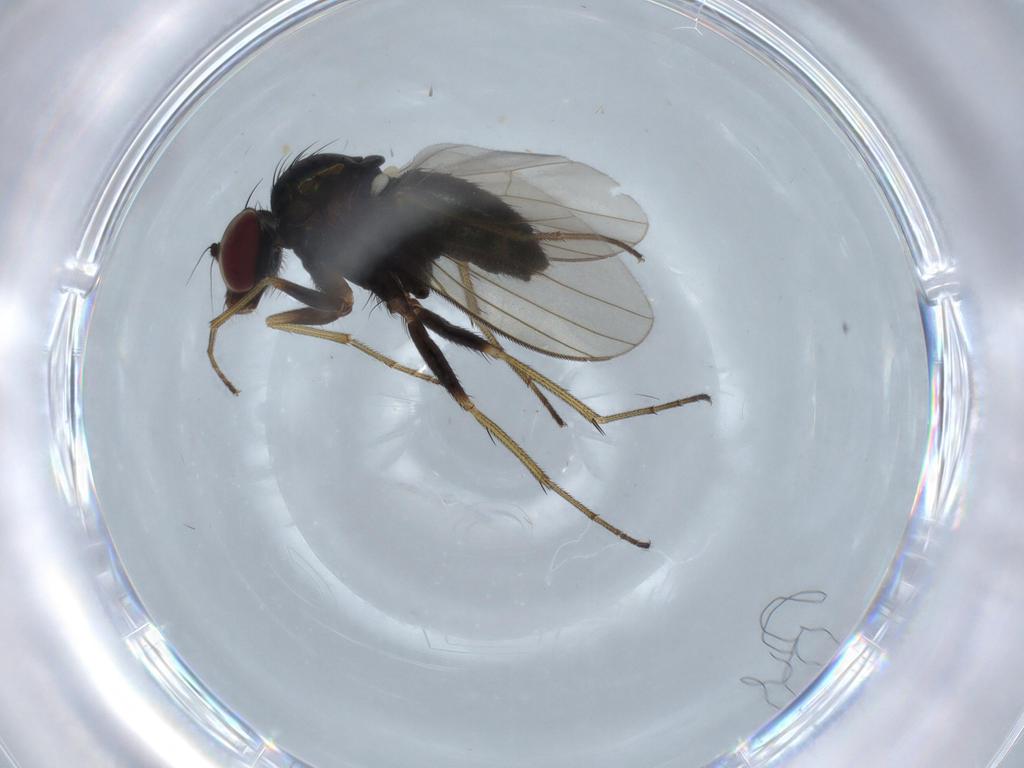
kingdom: Animalia
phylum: Arthropoda
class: Insecta
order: Diptera
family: Dolichopodidae
